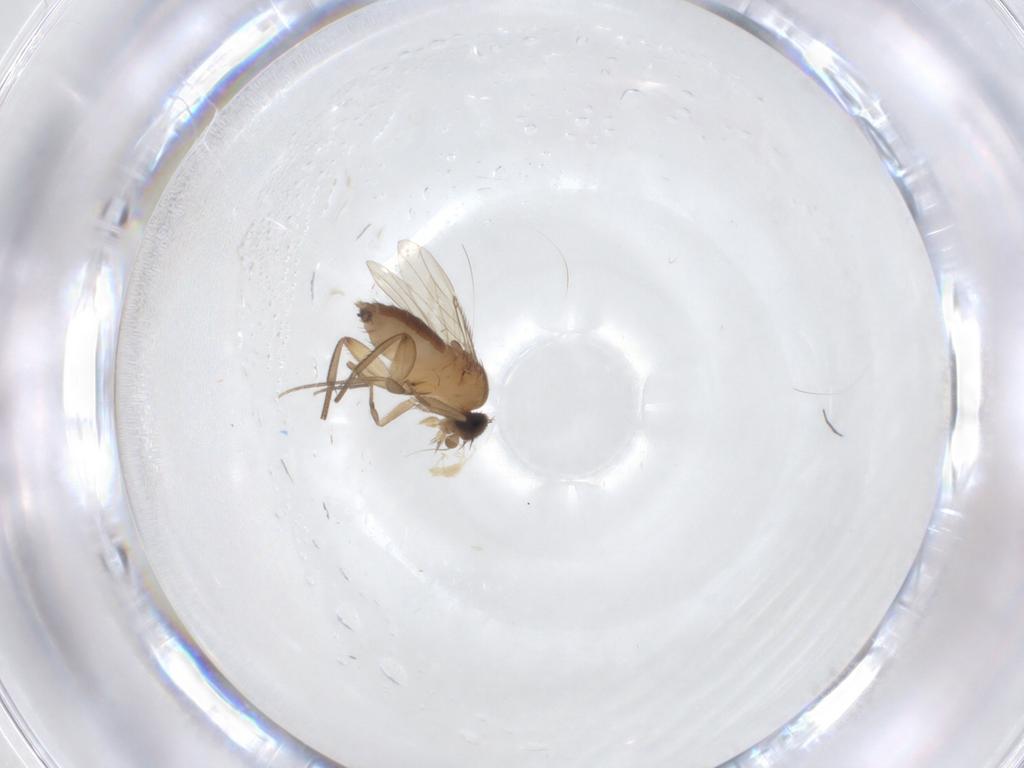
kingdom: Animalia
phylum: Arthropoda
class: Insecta
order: Diptera
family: Phoridae
